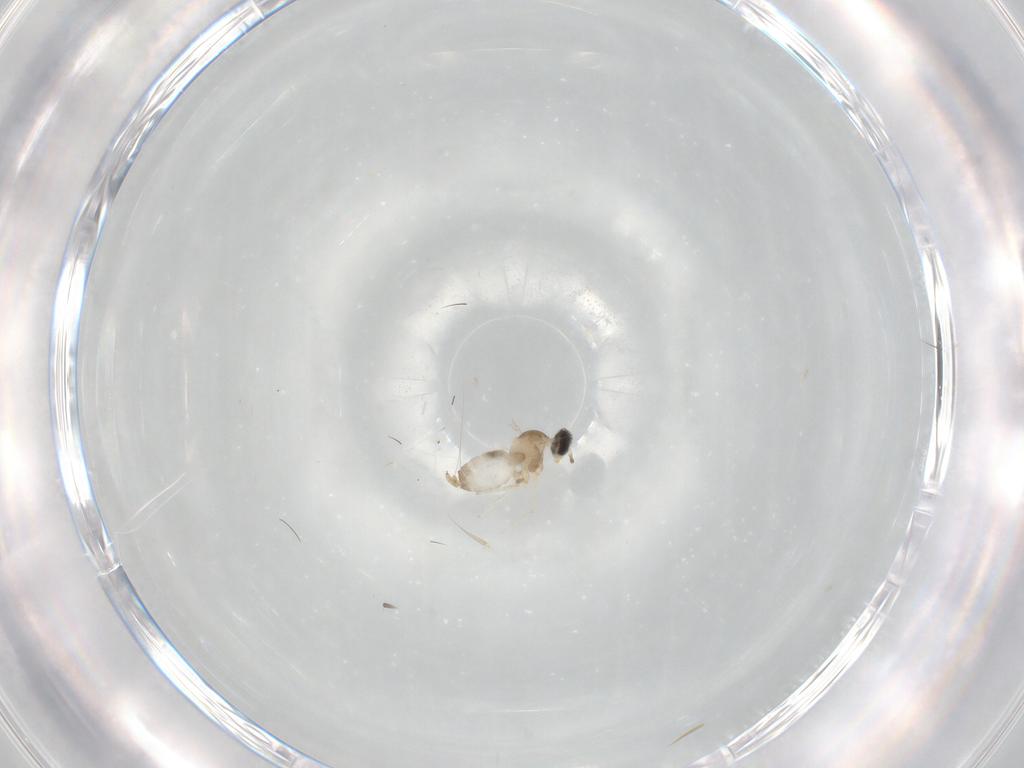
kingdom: Animalia
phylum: Arthropoda
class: Insecta
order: Diptera
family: Cecidomyiidae
